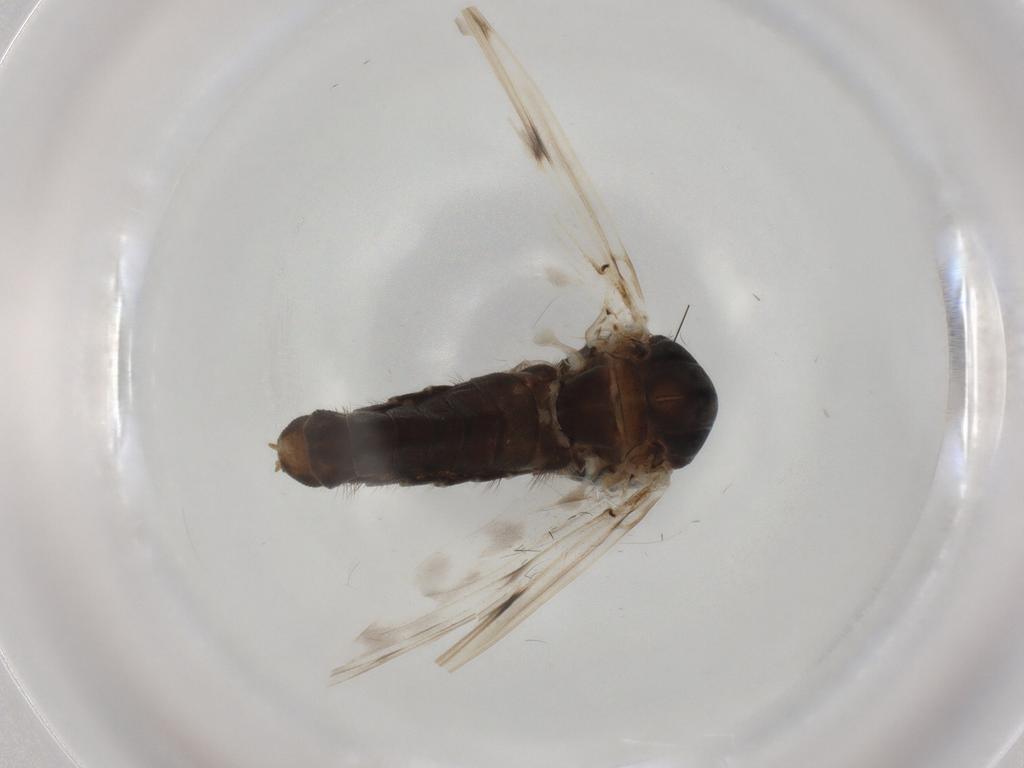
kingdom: Animalia
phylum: Arthropoda
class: Insecta
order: Diptera
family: Chironomidae
